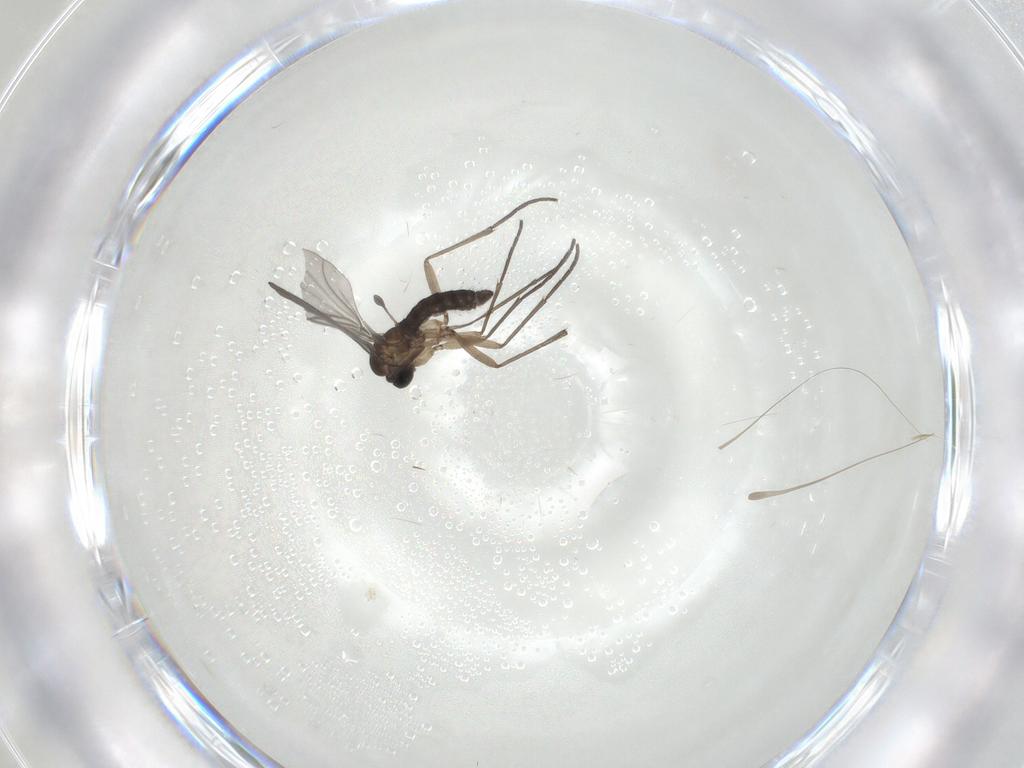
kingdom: Animalia
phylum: Arthropoda
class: Insecta
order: Diptera
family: Sciaridae
